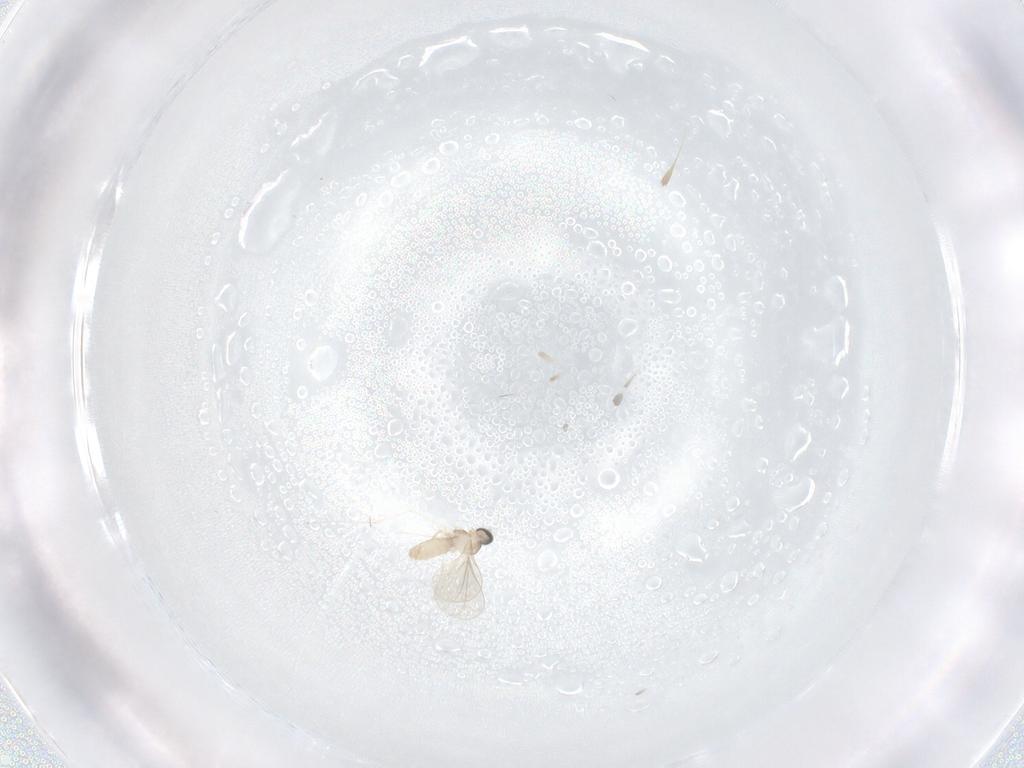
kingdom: Animalia
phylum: Arthropoda
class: Insecta
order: Diptera
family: Cecidomyiidae
